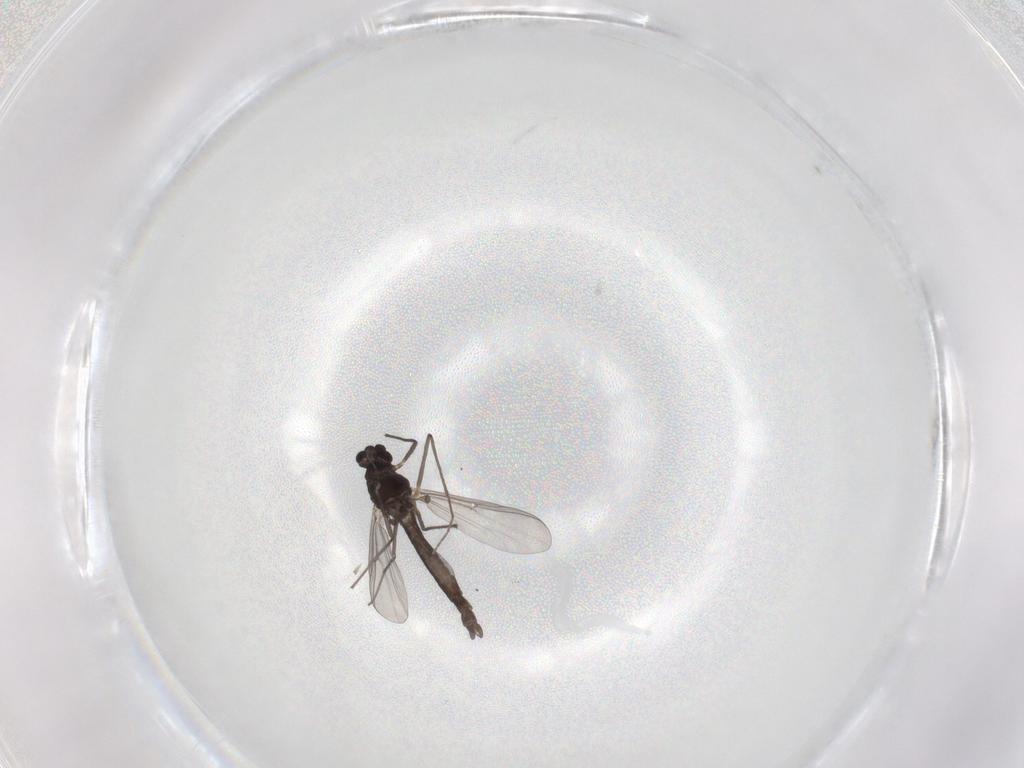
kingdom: Animalia
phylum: Arthropoda
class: Insecta
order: Diptera
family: Chironomidae
